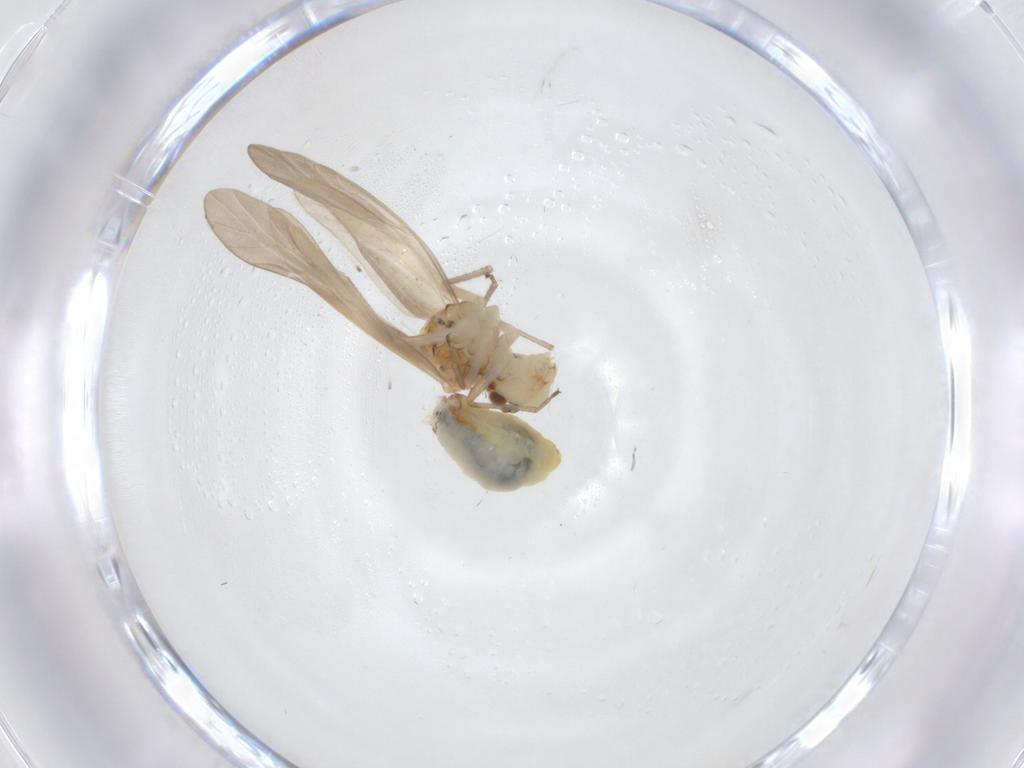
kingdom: Animalia
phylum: Arthropoda
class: Insecta
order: Psocodea
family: Caeciliusidae
